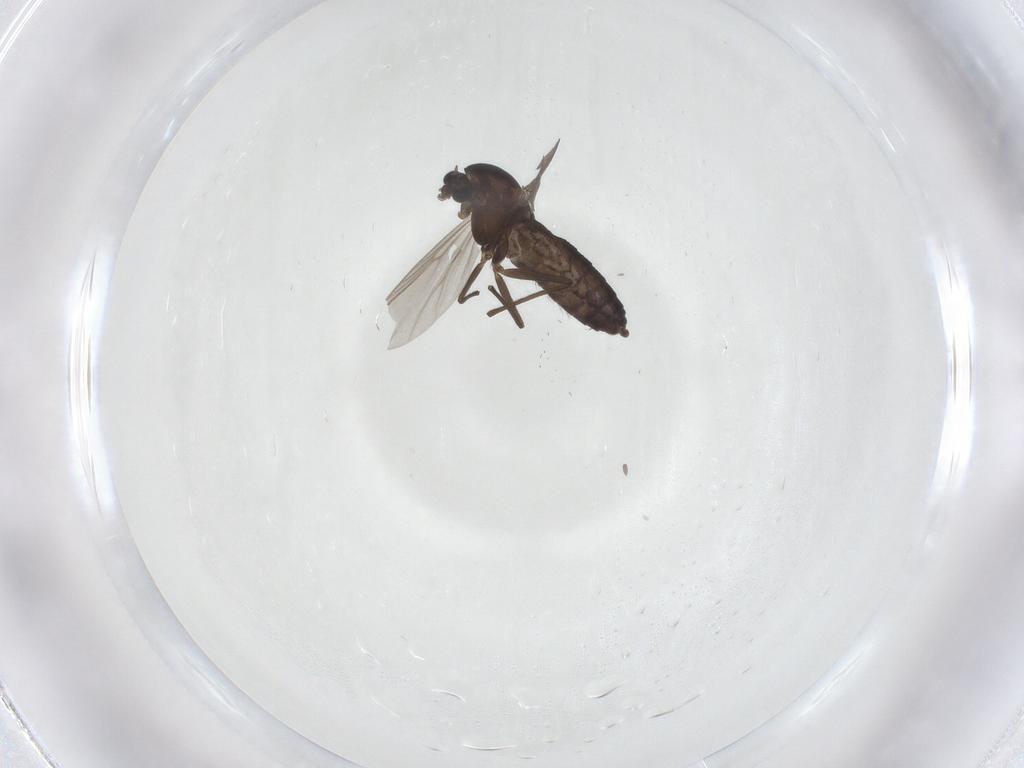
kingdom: Animalia
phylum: Arthropoda
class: Insecta
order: Diptera
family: Chironomidae
